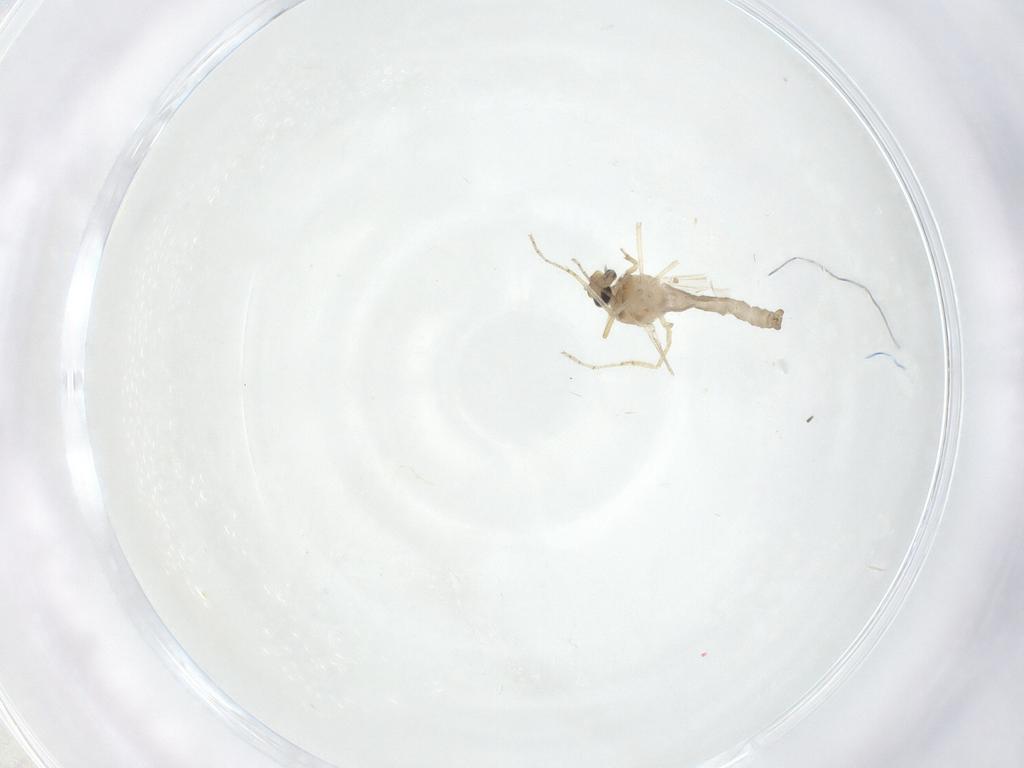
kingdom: Animalia
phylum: Arthropoda
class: Insecta
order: Diptera
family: Ceratopogonidae
